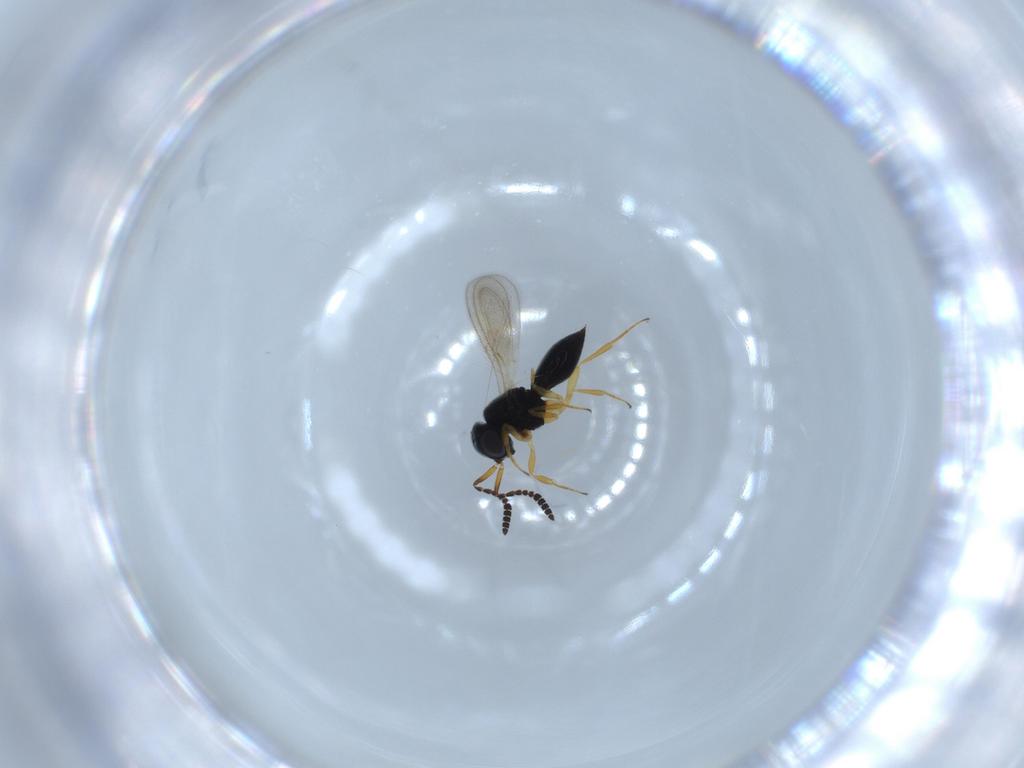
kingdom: Animalia
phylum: Arthropoda
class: Insecta
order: Hymenoptera
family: Scelionidae
